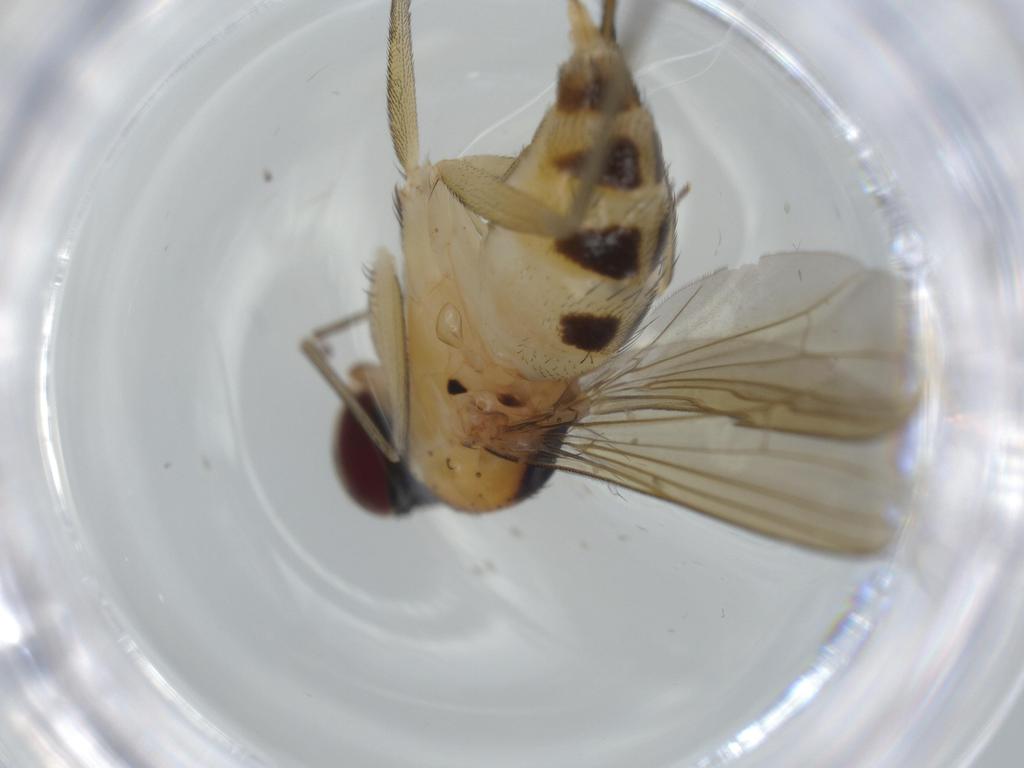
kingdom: Animalia
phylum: Arthropoda
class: Insecta
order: Diptera
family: Dolichopodidae
